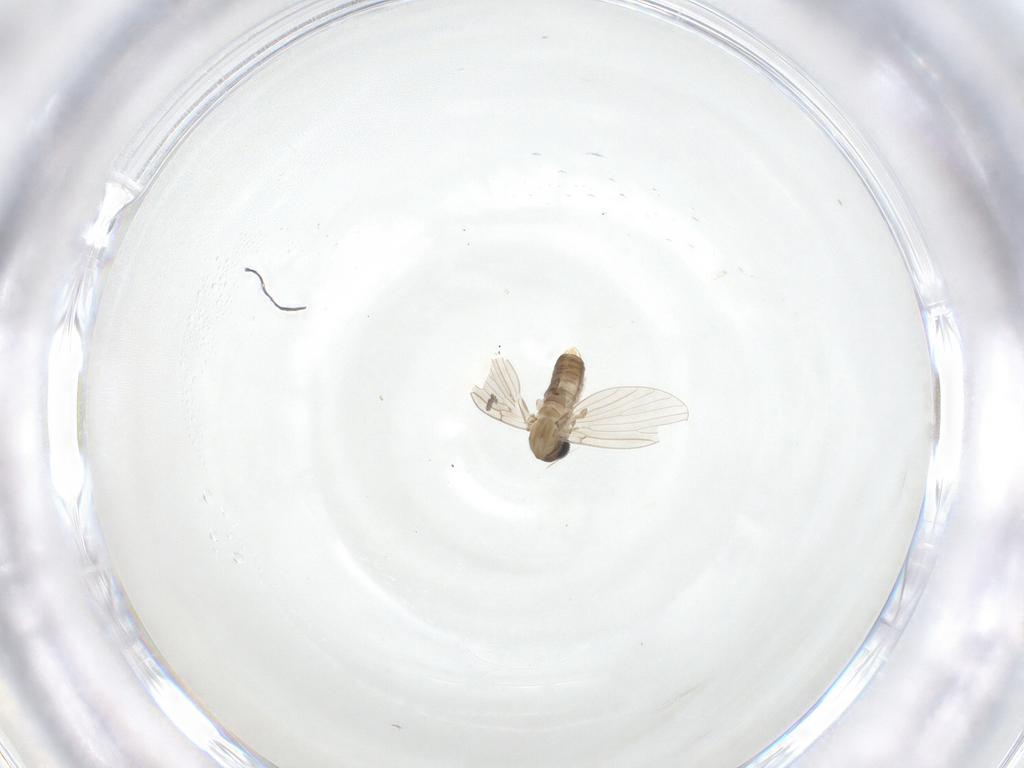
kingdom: Animalia
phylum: Arthropoda
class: Insecta
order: Diptera
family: Psychodidae
